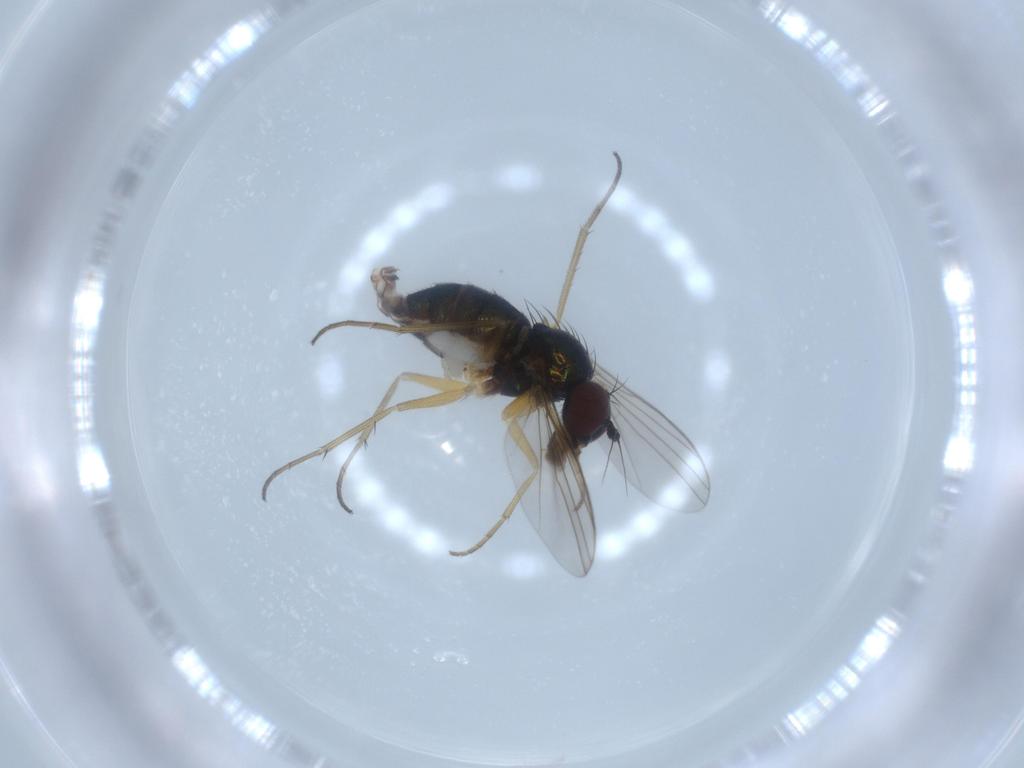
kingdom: Animalia
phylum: Arthropoda
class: Insecta
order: Diptera
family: Dolichopodidae
